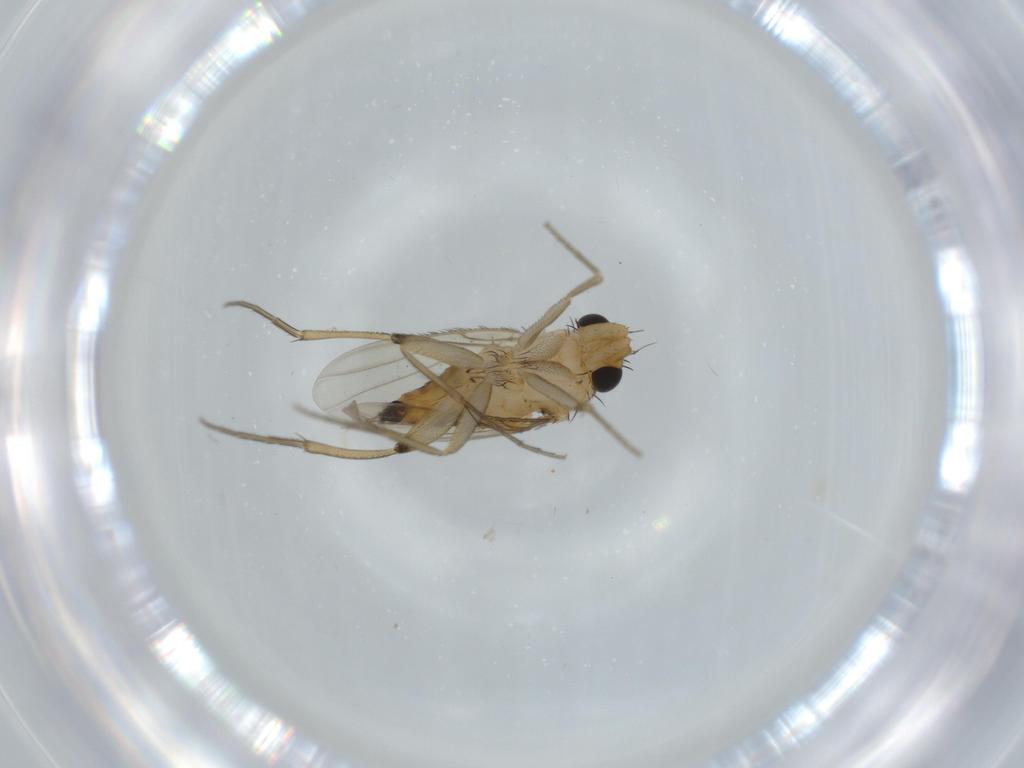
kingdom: Animalia
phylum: Arthropoda
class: Insecta
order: Diptera
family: Phoridae
